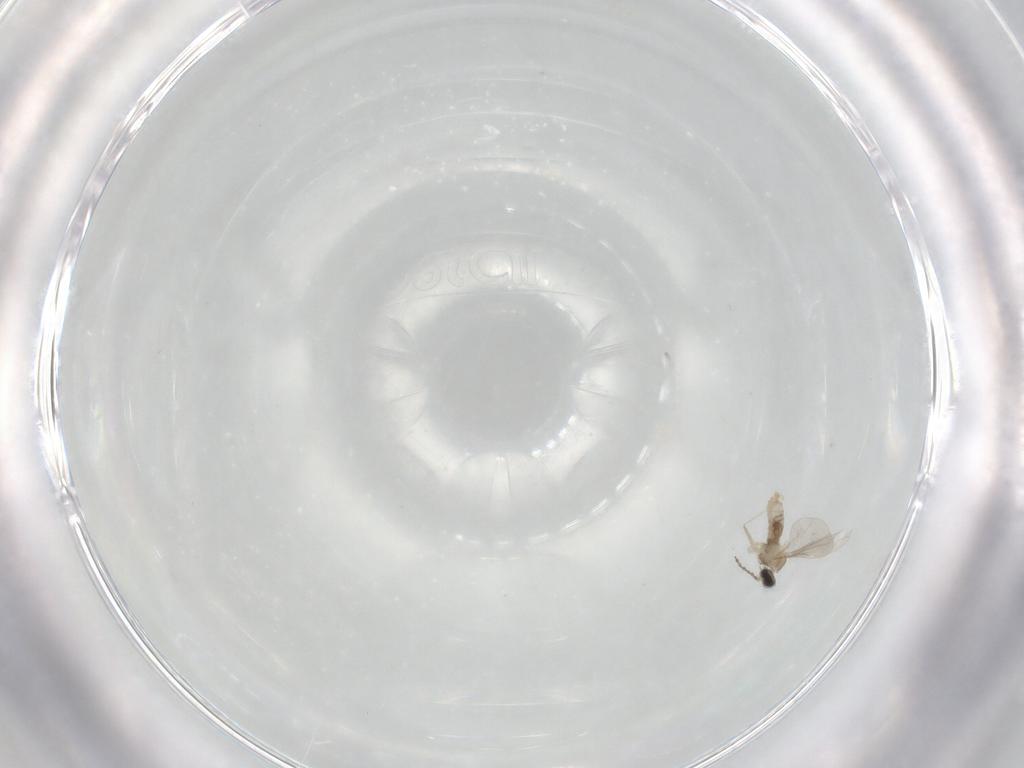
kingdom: Animalia
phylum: Arthropoda
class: Insecta
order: Diptera
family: Cecidomyiidae
